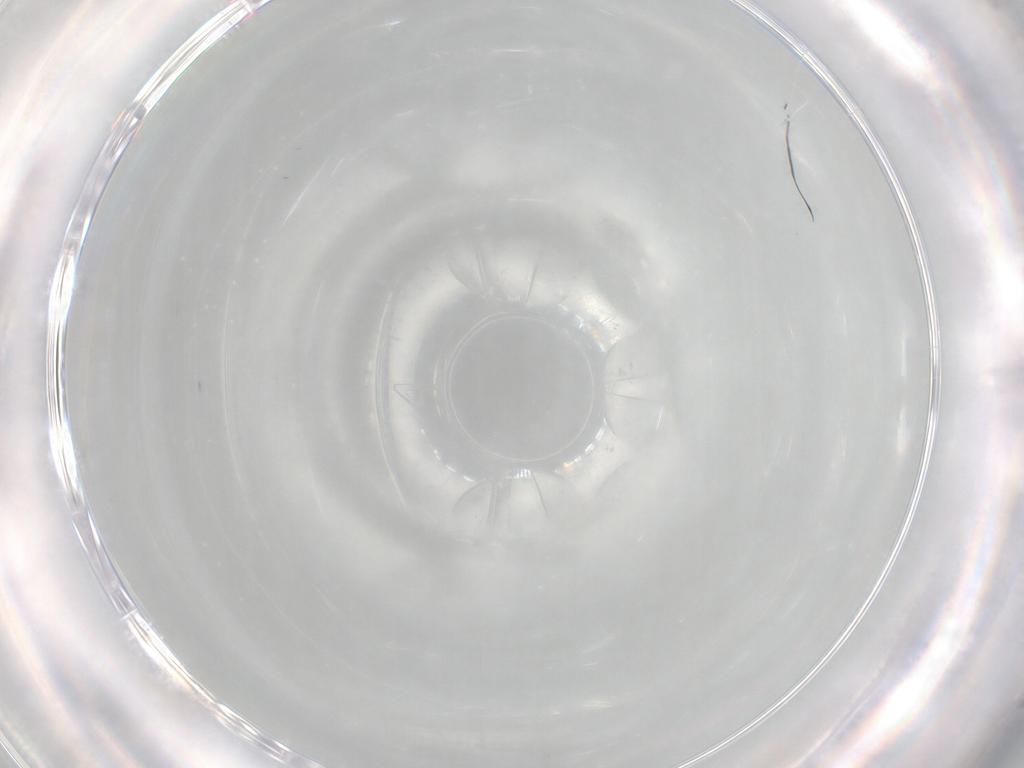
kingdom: Animalia
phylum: Arthropoda
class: Insecta
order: Diptera
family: Cecidomyiidae
